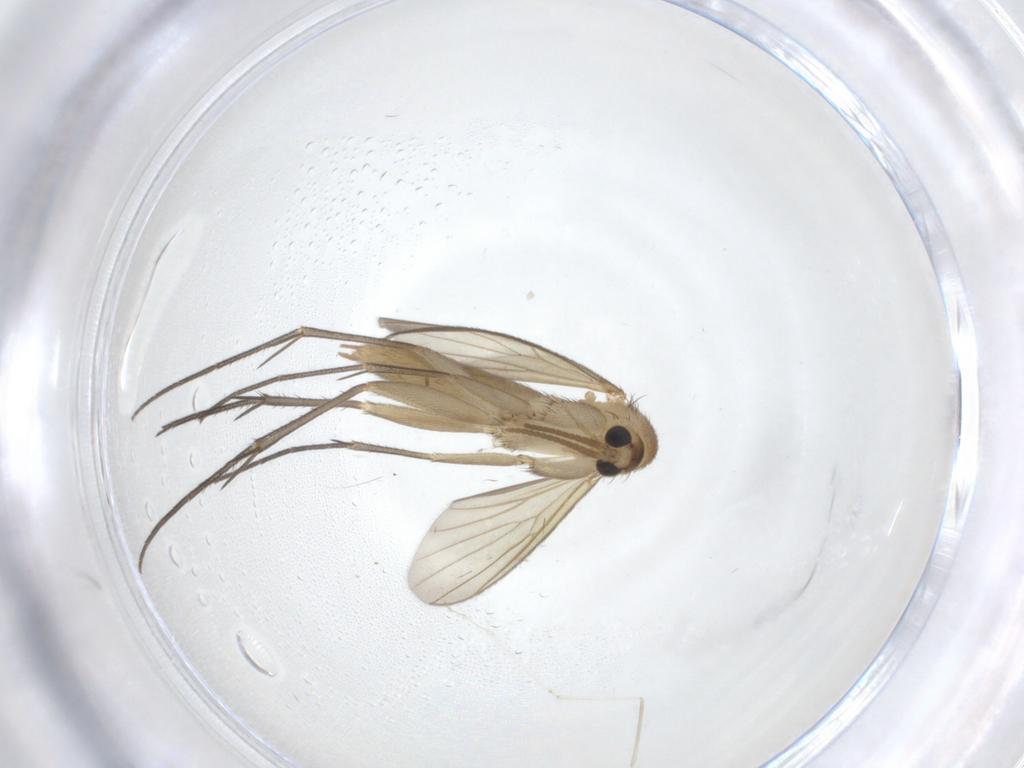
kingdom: Animalia
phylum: Arthropoda
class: Insecta
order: Diptera
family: Mycetophilidae
